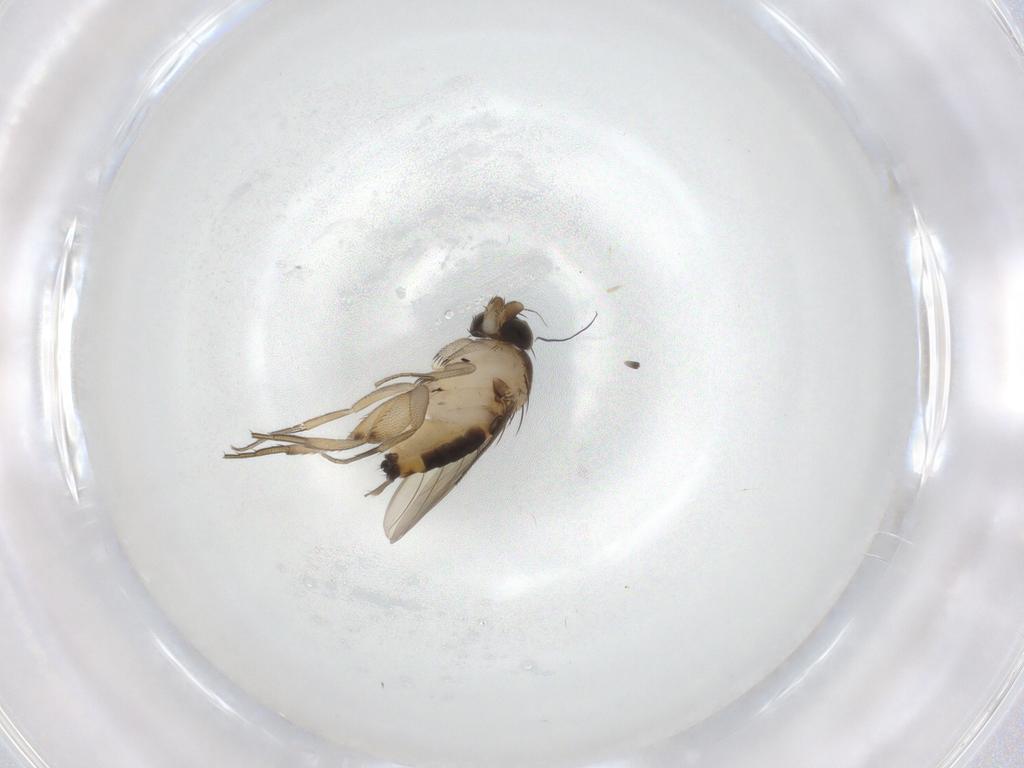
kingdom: Animalia
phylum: Arthropoda
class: Insecta
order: Diptera
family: Phoridae
